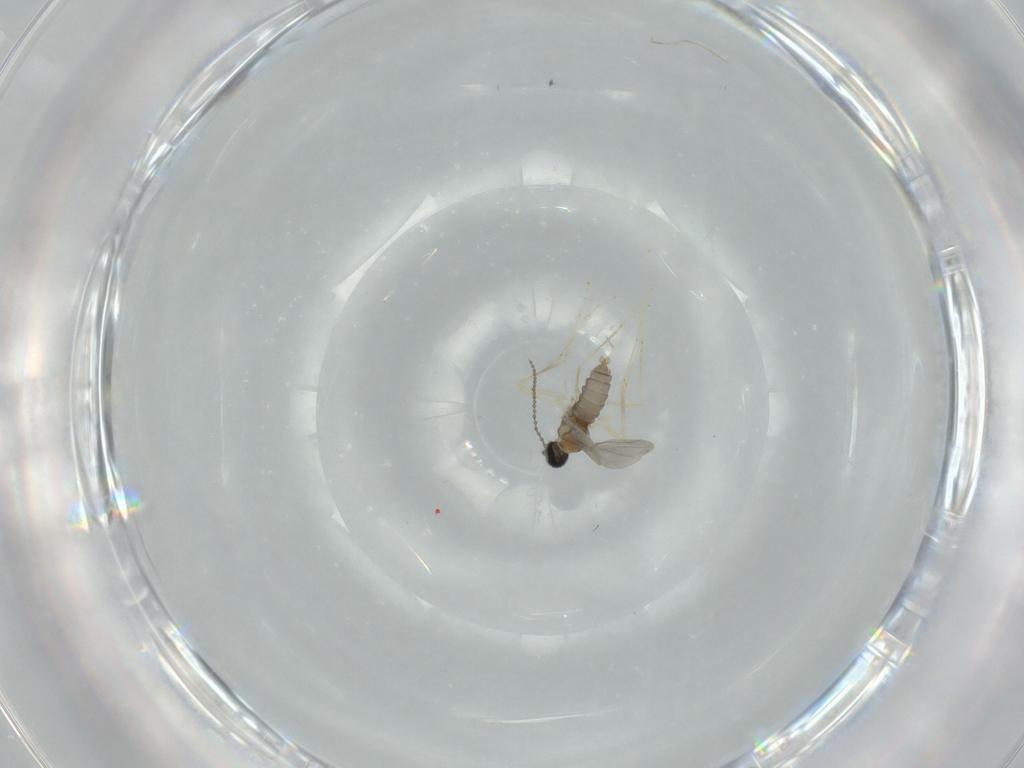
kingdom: Animalia
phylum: Arthropoda
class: Insecta
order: Diptera
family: Cecidomyiidae
